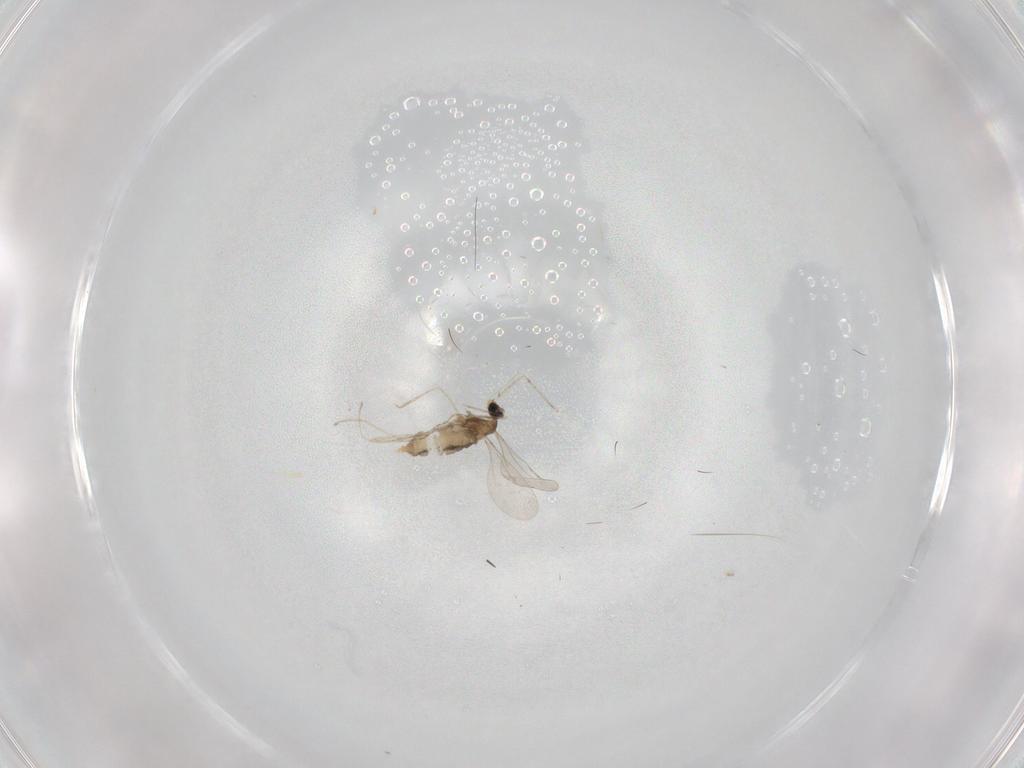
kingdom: Animalia
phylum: Arthropoda
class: Insecta
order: Diptera
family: Cecidomyiidae
